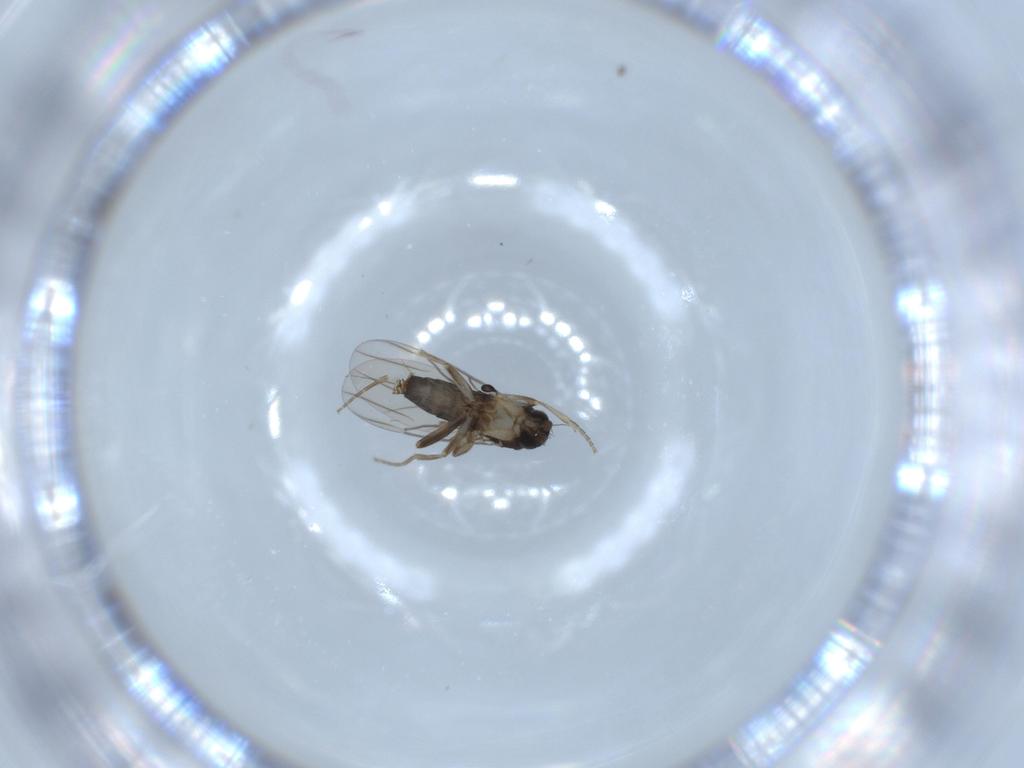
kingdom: Animalia
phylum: Arthropoda
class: Insecta
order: Diptera
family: Phoridae
